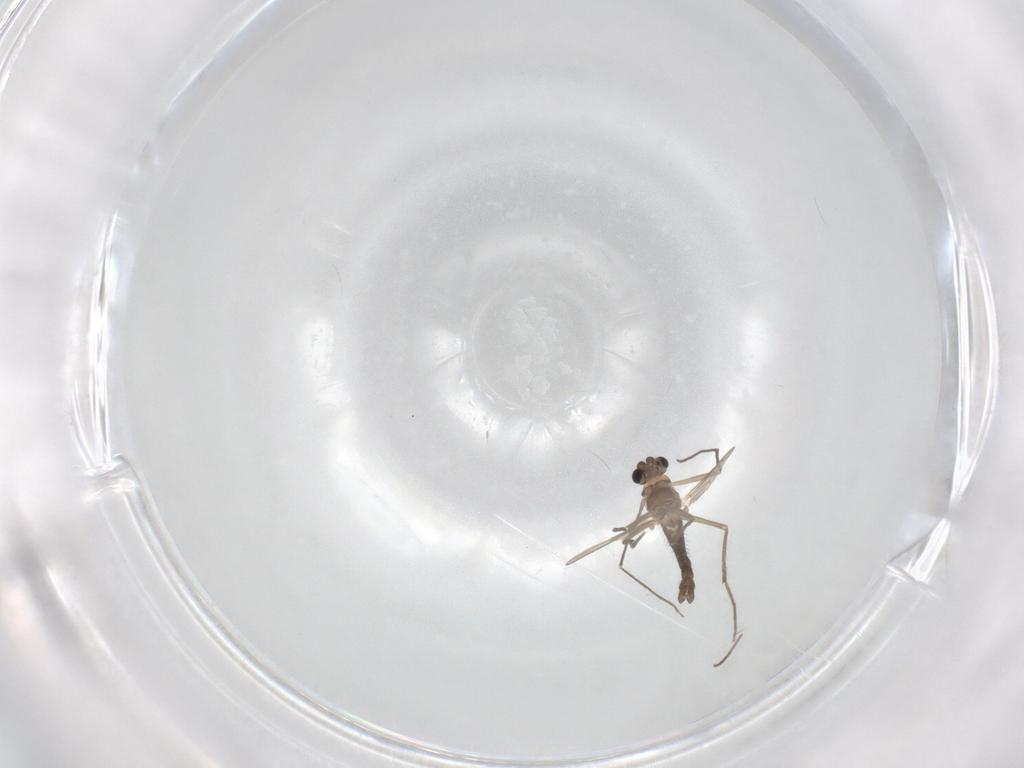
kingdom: Animalia
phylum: Arthropoda
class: Insecta
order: Diptera
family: Chironomidae
